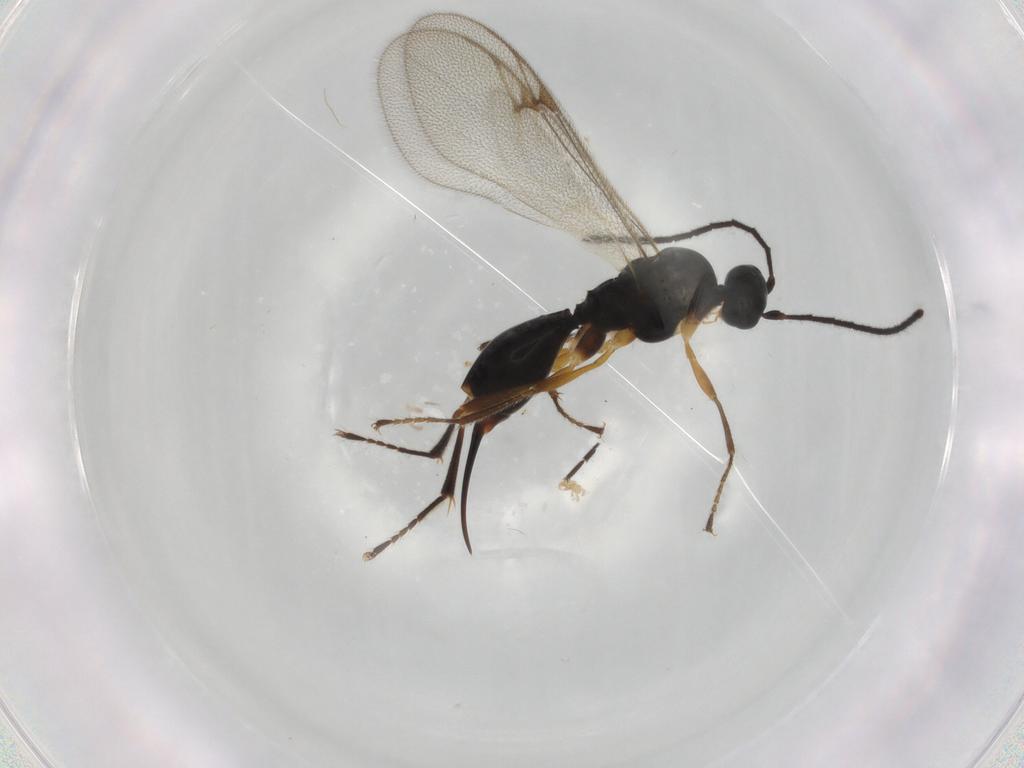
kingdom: Animalia
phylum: Arthropoda
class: Insecta
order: Hymenoptera
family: Proctotrupidae
